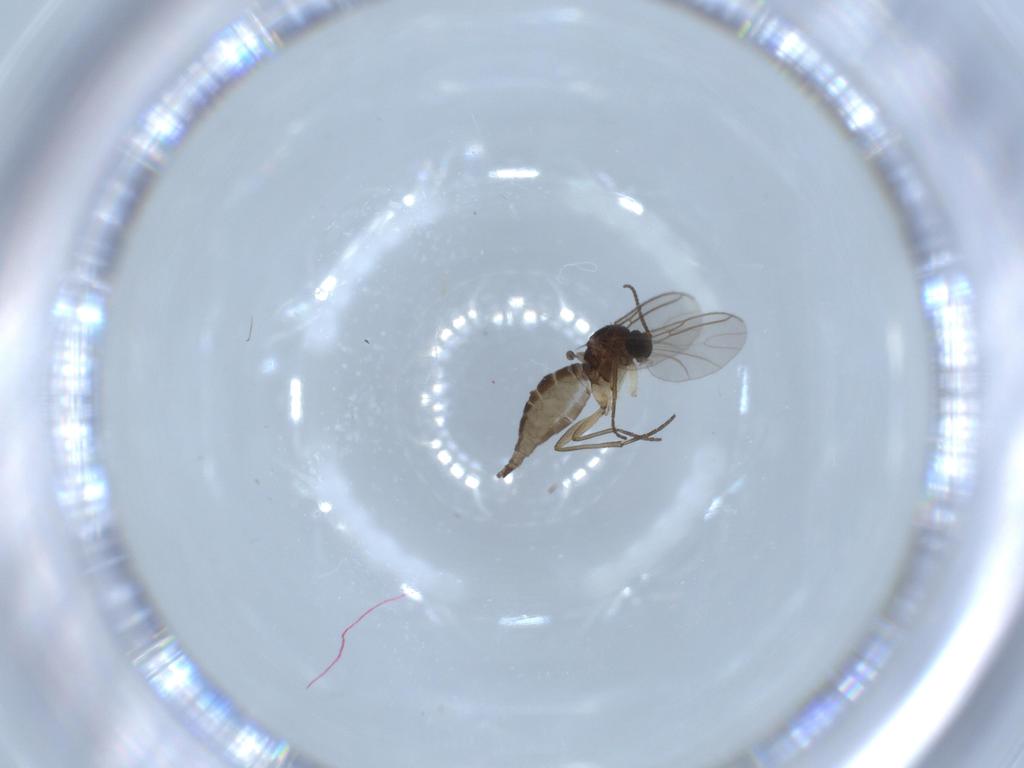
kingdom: Animalia
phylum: Arthropoda
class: Insecta
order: Diptera
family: Sciaridae
